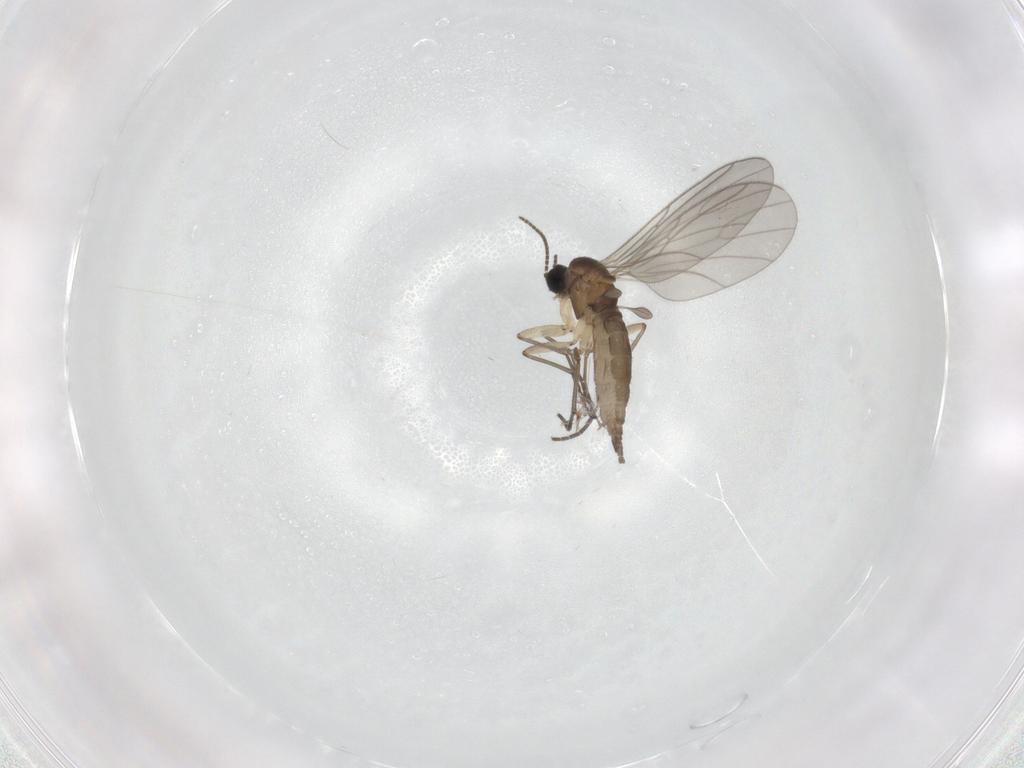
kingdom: Animalia
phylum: Arthropoda
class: Insecta
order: Diptera
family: Sciaridae
